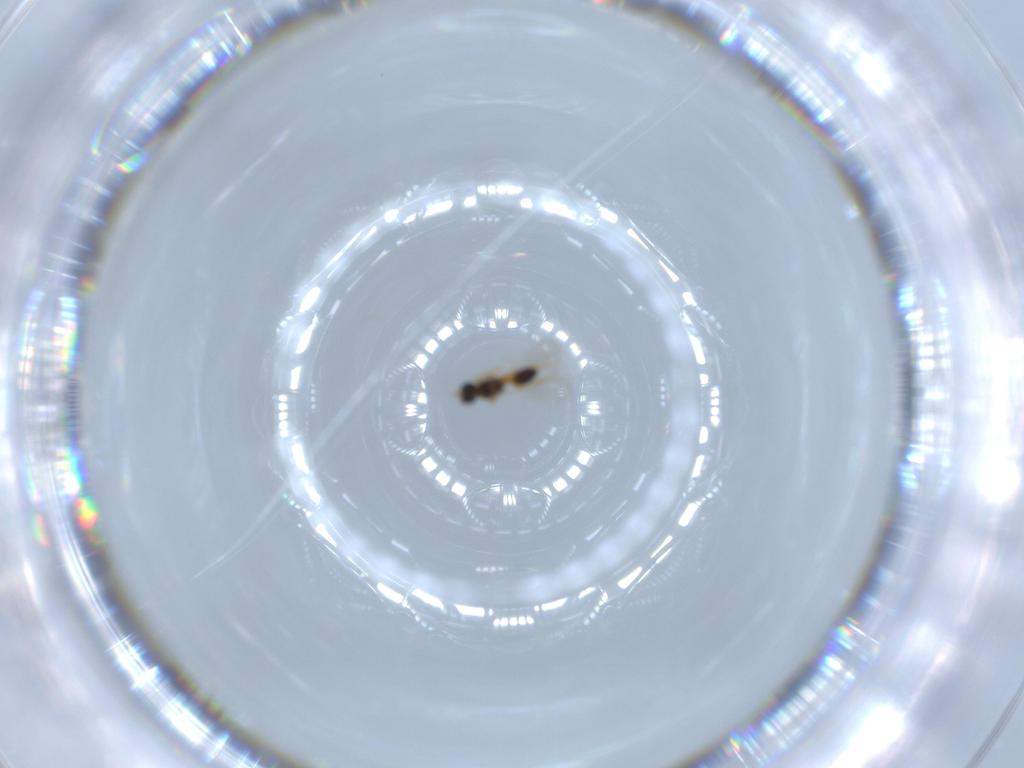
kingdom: Animalia
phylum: Arthropoda
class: Insecta
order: Hymenoptera
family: Platygastridae
